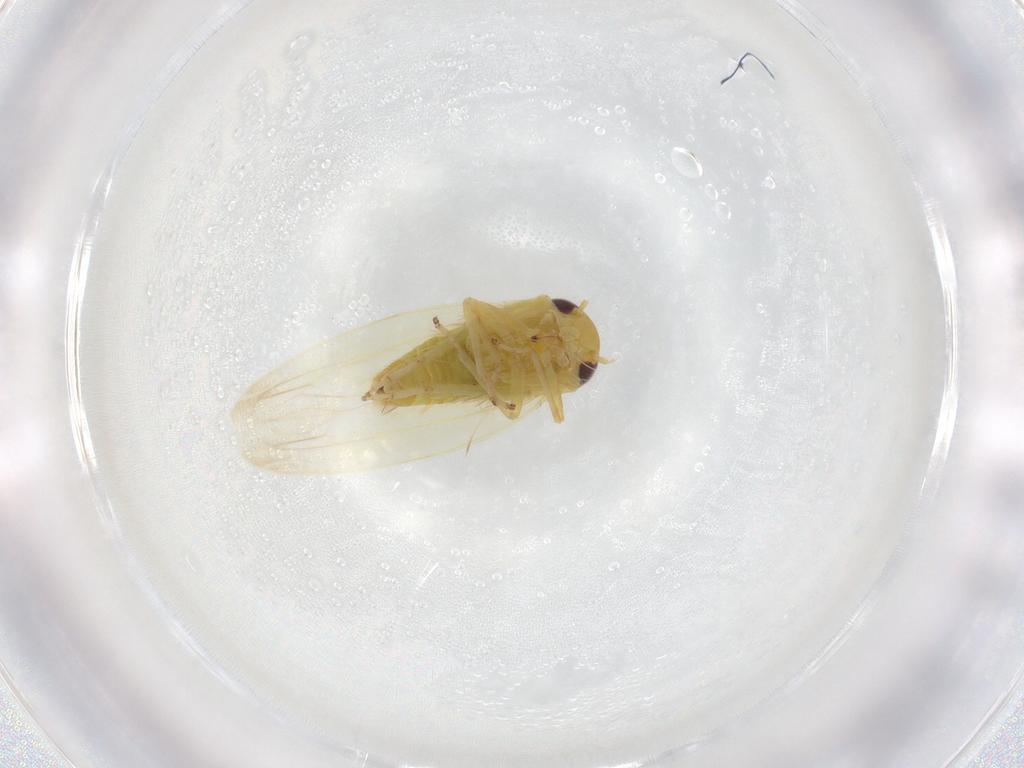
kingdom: Animalia
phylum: Arthropoda
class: Insecta
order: Hemiptera
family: Cicadellidae
